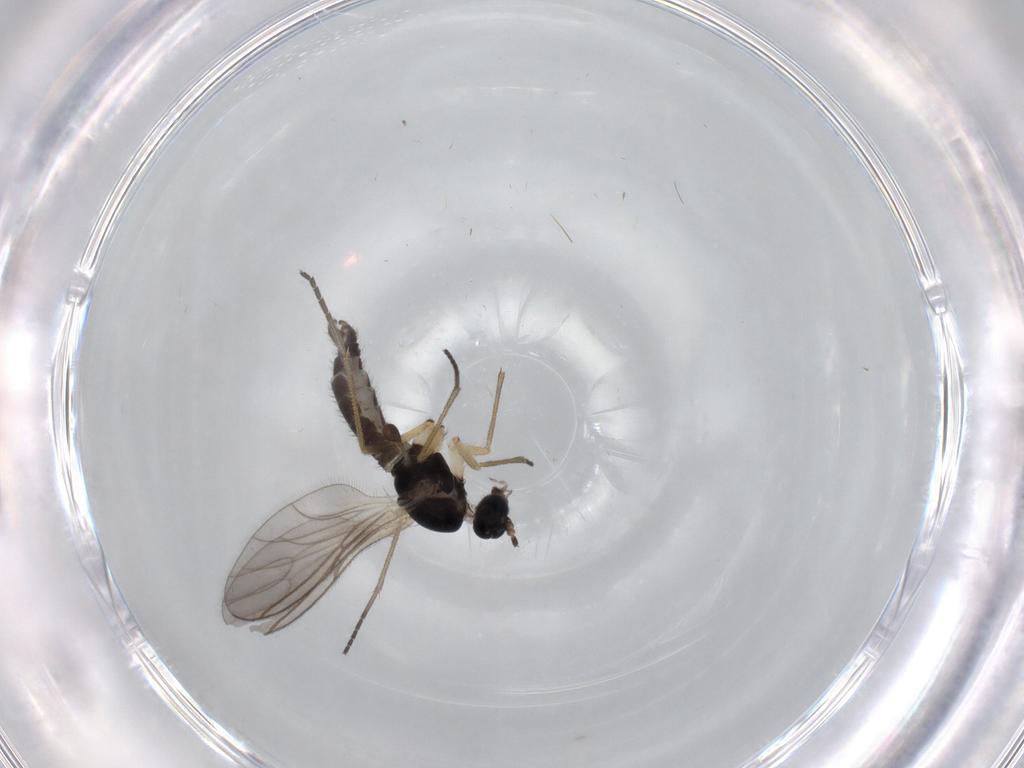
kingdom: Animalia
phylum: Arthropoda
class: Insecta
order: Diptera
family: Sciaridae
